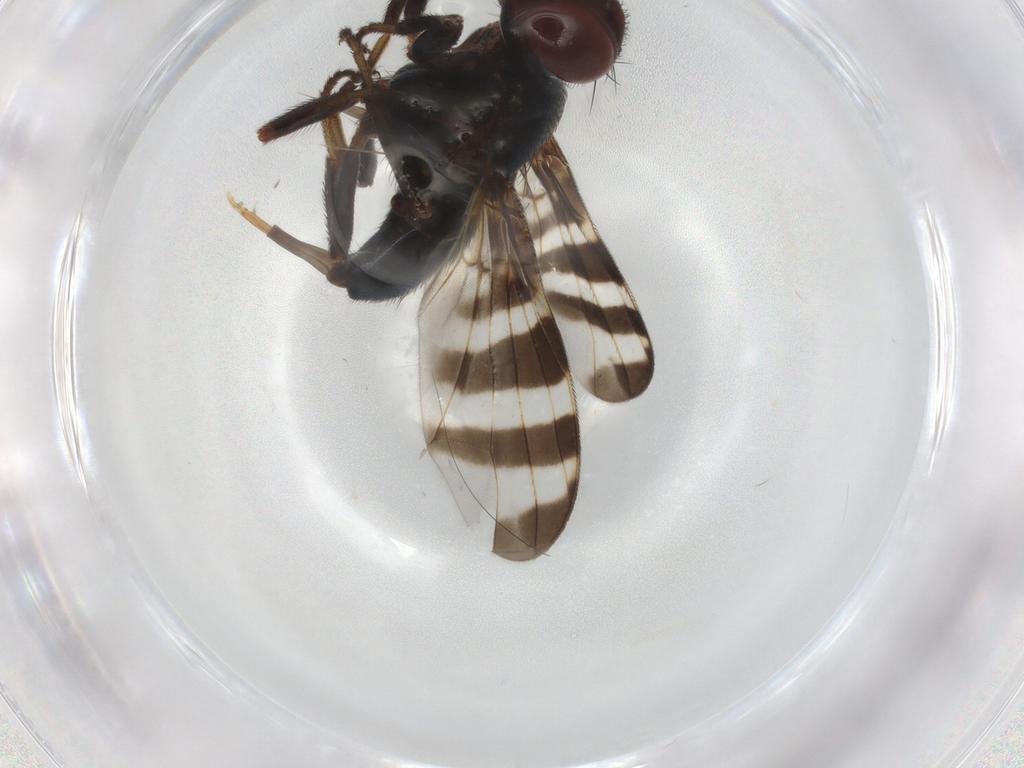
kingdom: Animalia
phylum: Arthropoda
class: Insecta
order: Diptera
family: Platystomatidae
